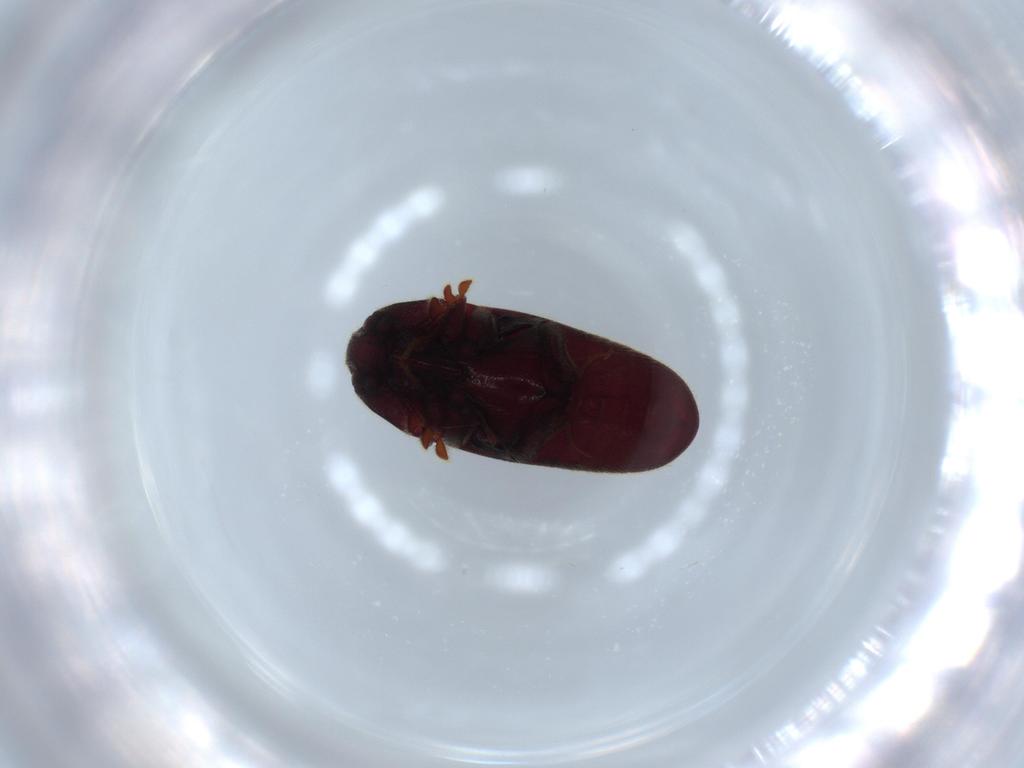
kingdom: Animalia
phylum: Arthropoda
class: Insecta
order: Coleoptera
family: Throscidae
